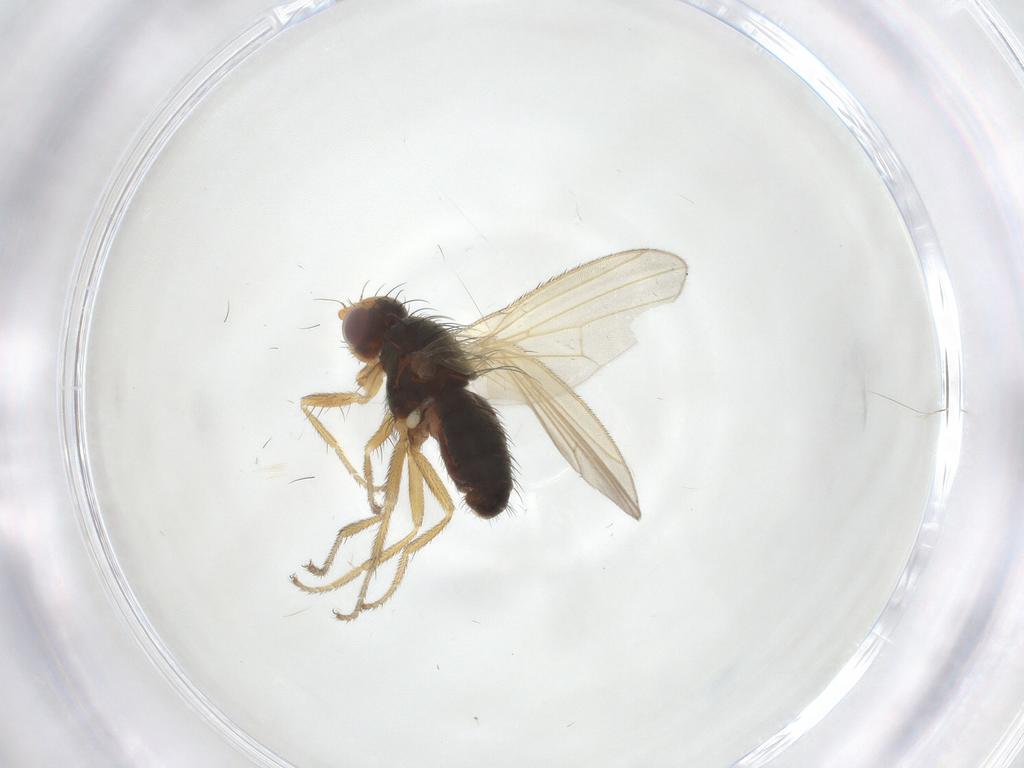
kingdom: Animalia
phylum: Arthropoda
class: Insecta
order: Diptera
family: Empididae
